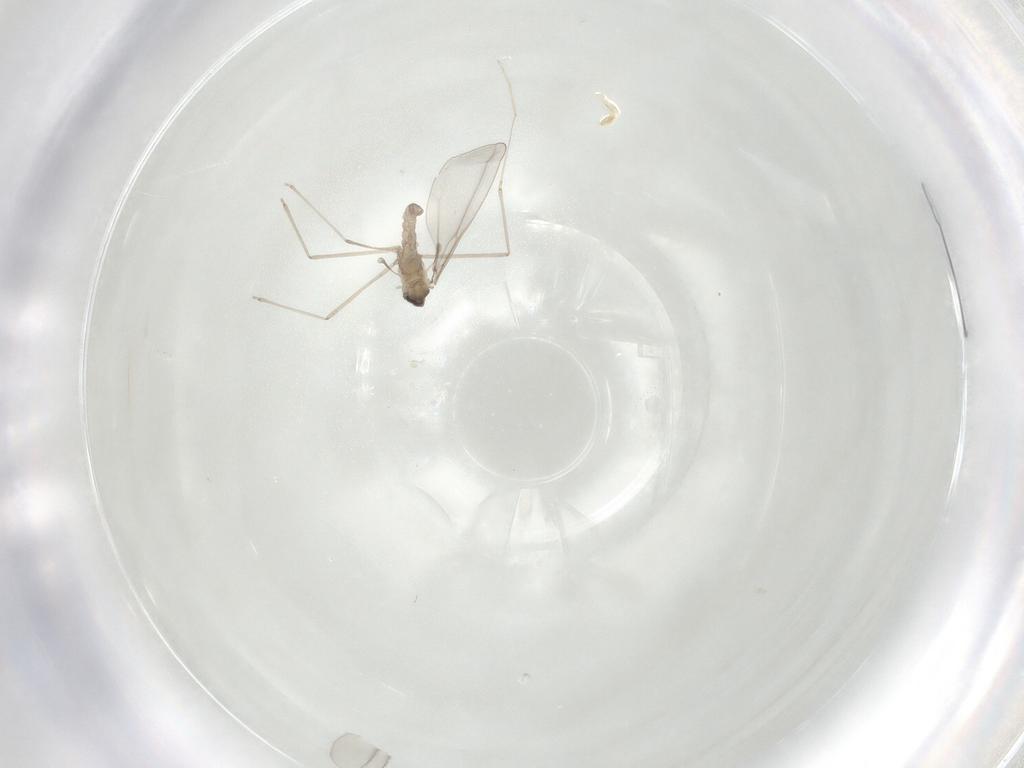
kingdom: Animalia
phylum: Arthropoda
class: Insecta
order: Diptera
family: Cecidomyiidae
